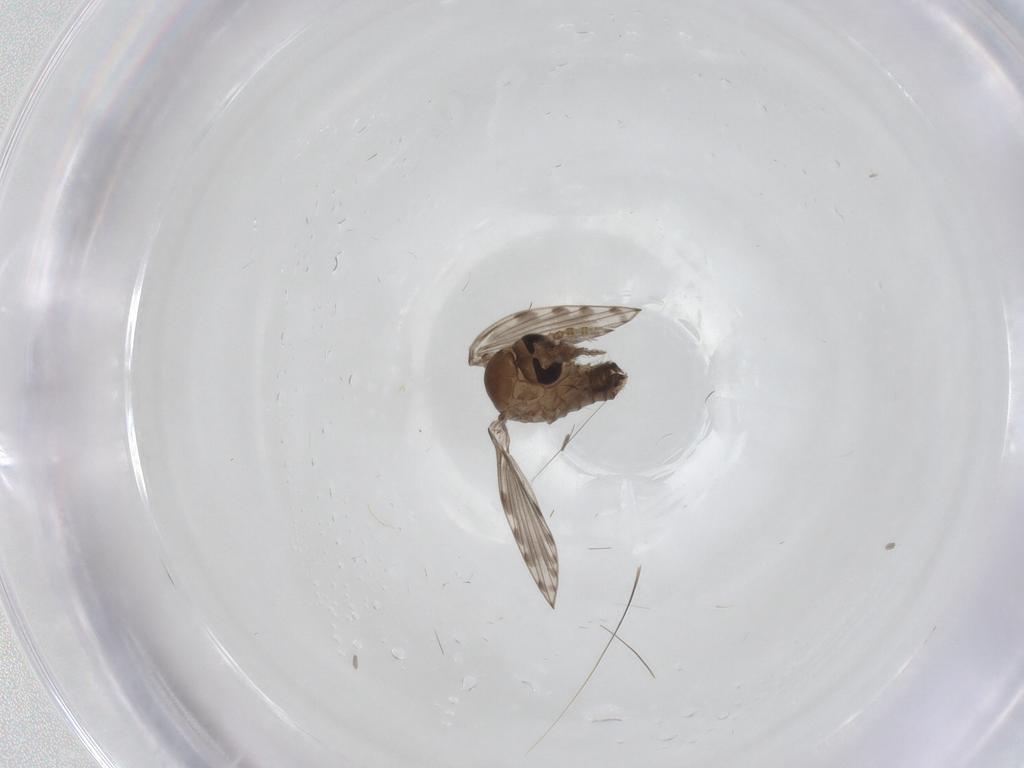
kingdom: Animalia
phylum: Arthropoda
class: Insecta
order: Diptera
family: Psychodidae
